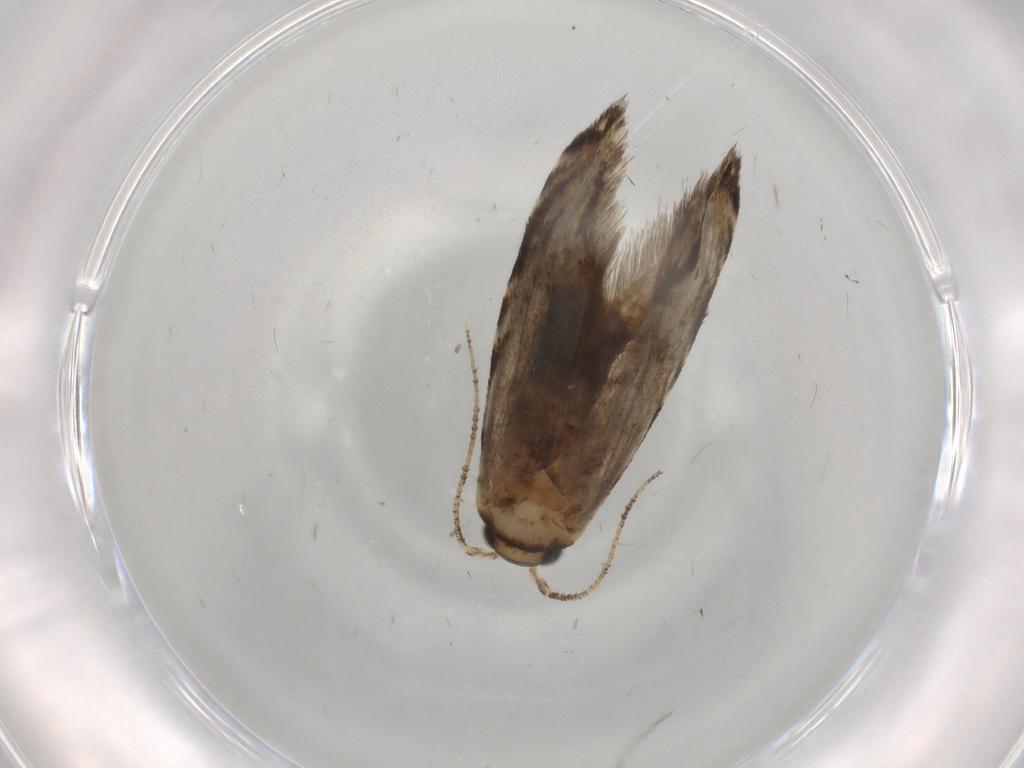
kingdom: Animalia
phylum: Arthropoda
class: Insecta
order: Lepidoptera
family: Tineidae
